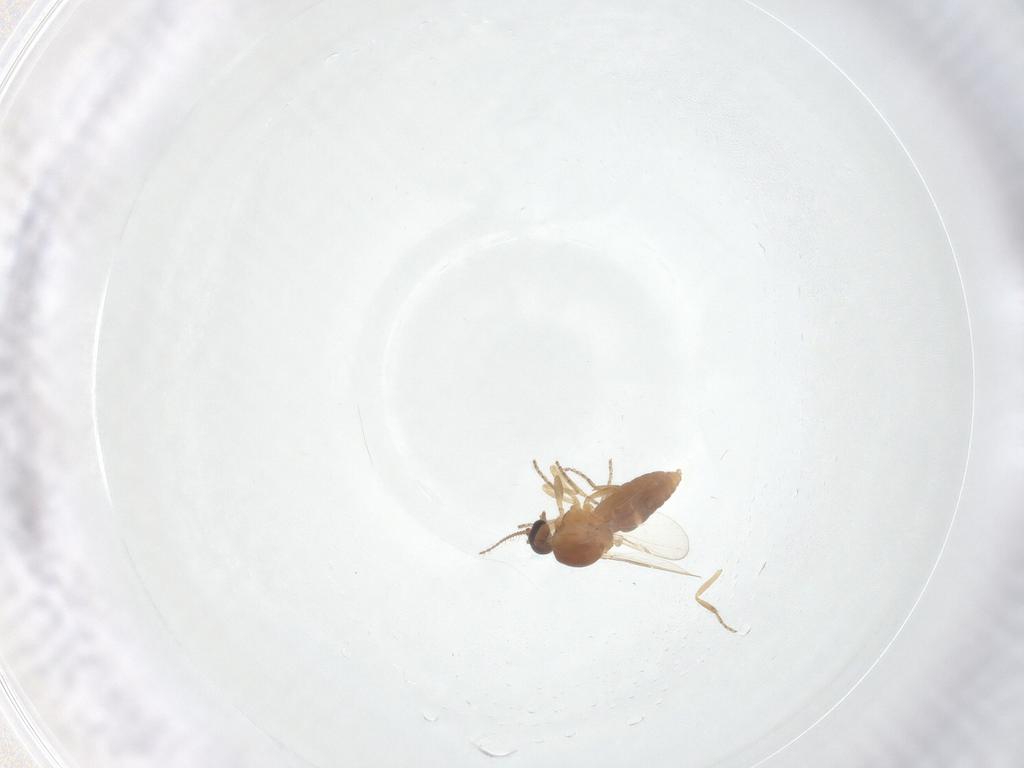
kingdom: Animalia
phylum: Arthropoda
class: Insecta
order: Diptera
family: Ceratopogonidae
